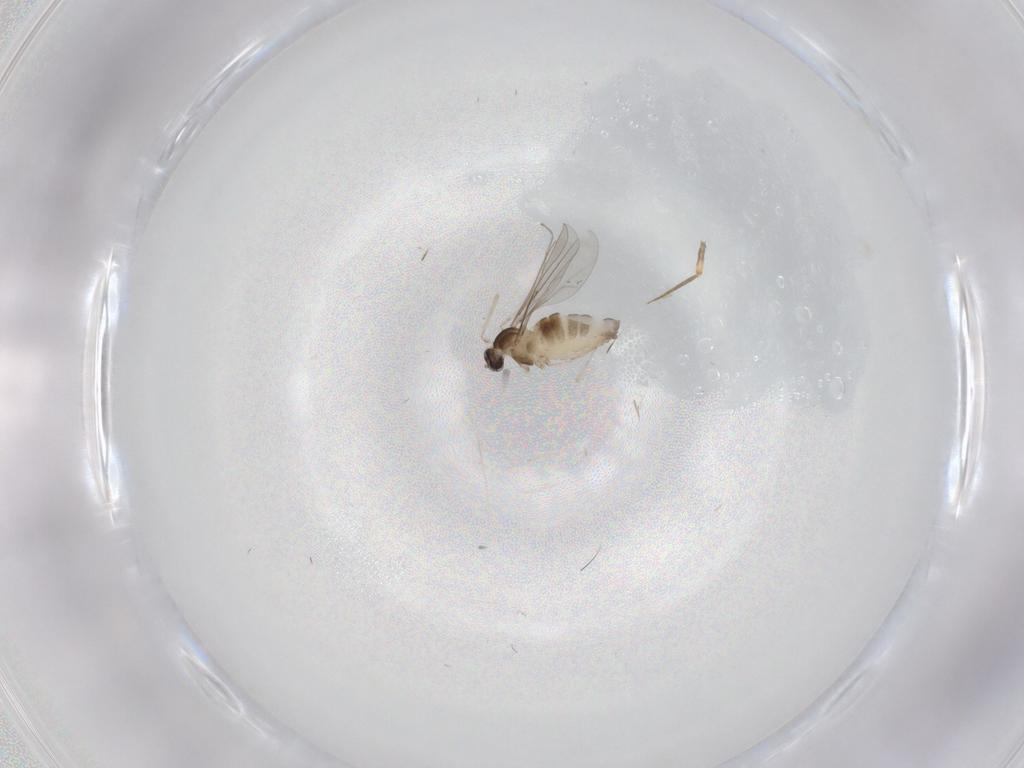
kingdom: Animalia
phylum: Arthropoda
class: Insecta
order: Diptera
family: Cecidomyiidae
